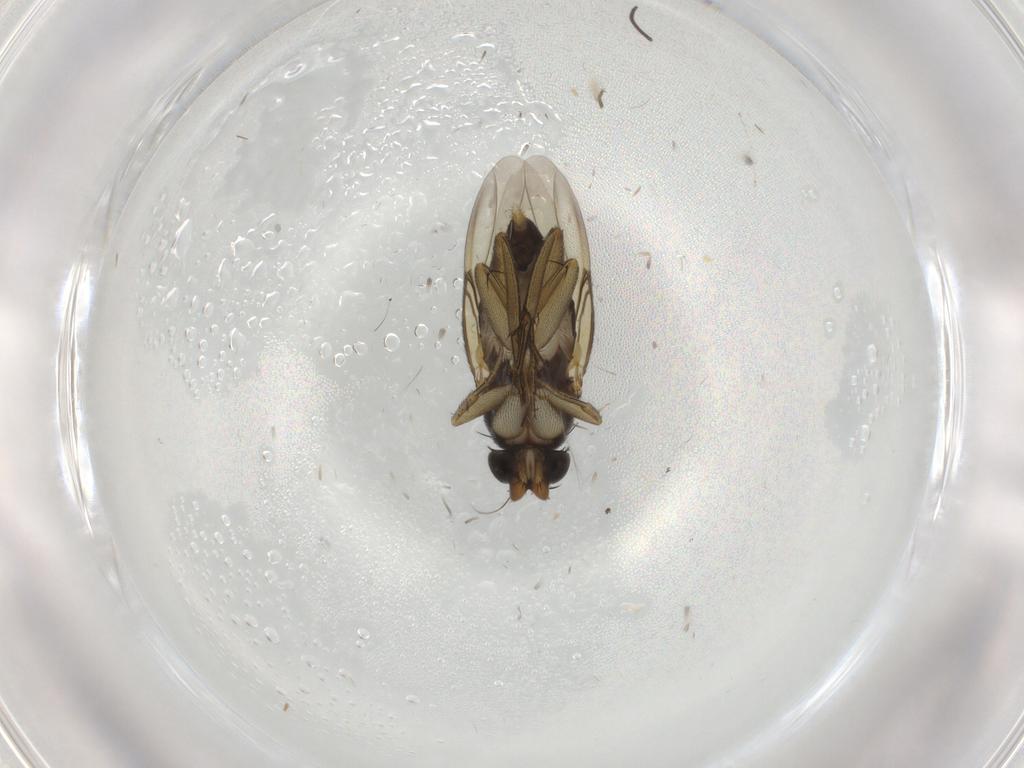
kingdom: Animalia
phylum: Arthropoda
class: Insecta
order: Diptera
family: Phoridae
